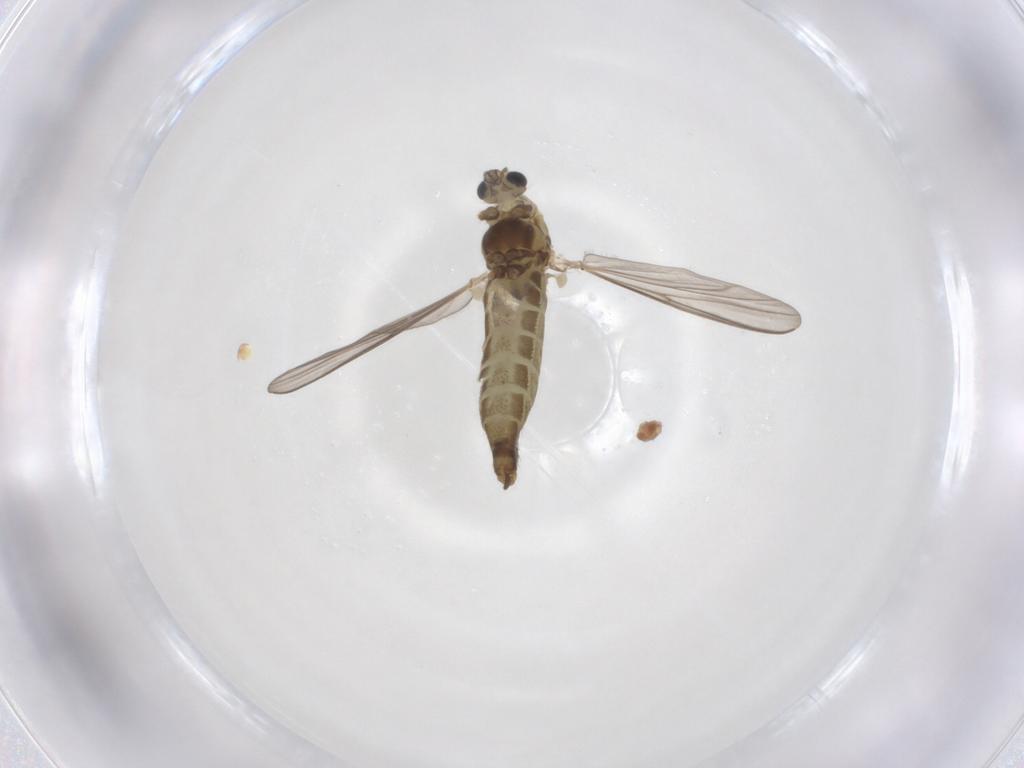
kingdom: Animalia
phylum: Arthropoda
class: Insecta
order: Diptera
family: Chironomidae
